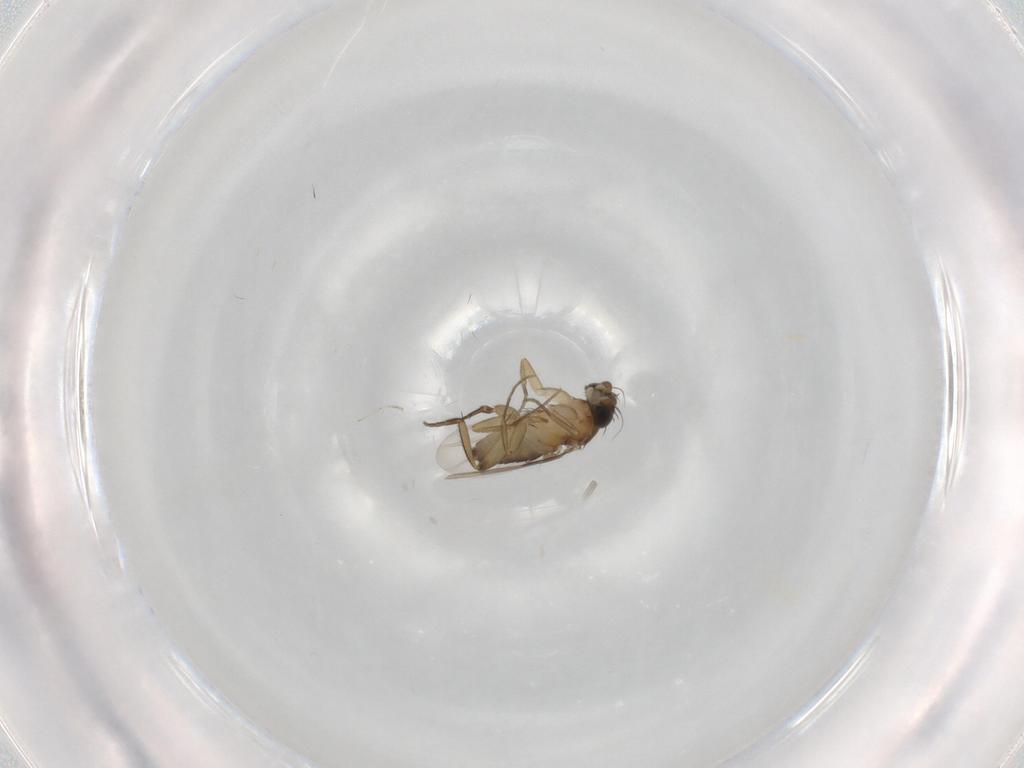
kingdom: Animalia
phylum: Arthropoda
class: Insecta
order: Diptera
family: Phoridae
